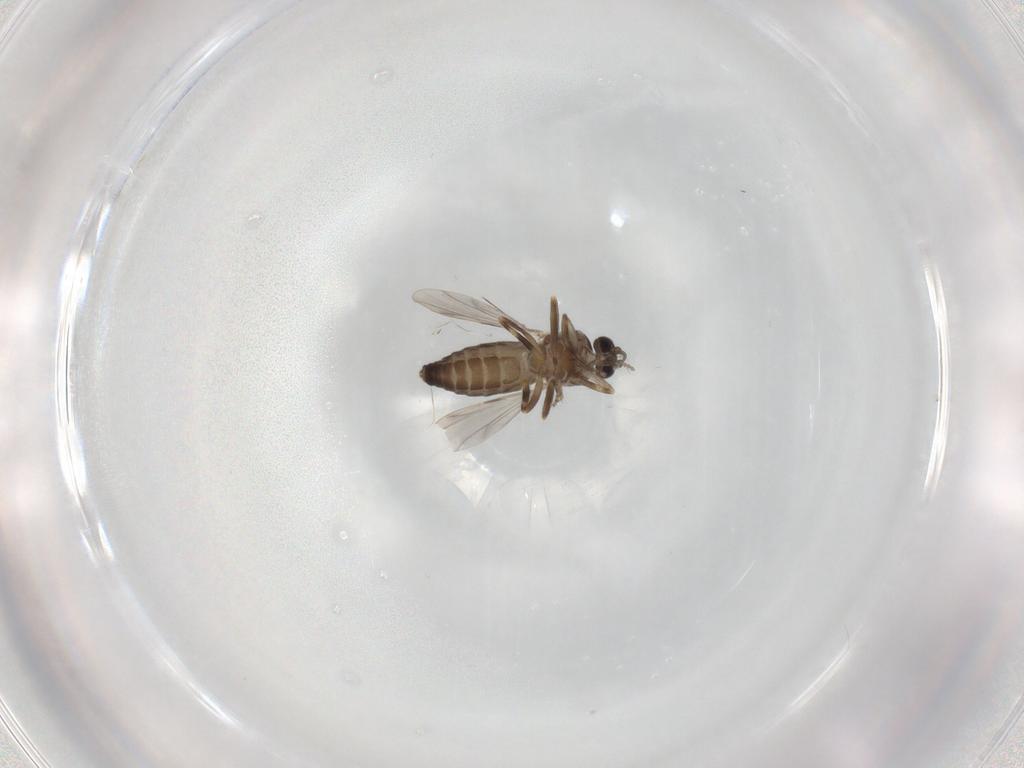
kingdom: Animalia
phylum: Arthropoda
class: Insecta
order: Diptera
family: Ceratopogonidae
